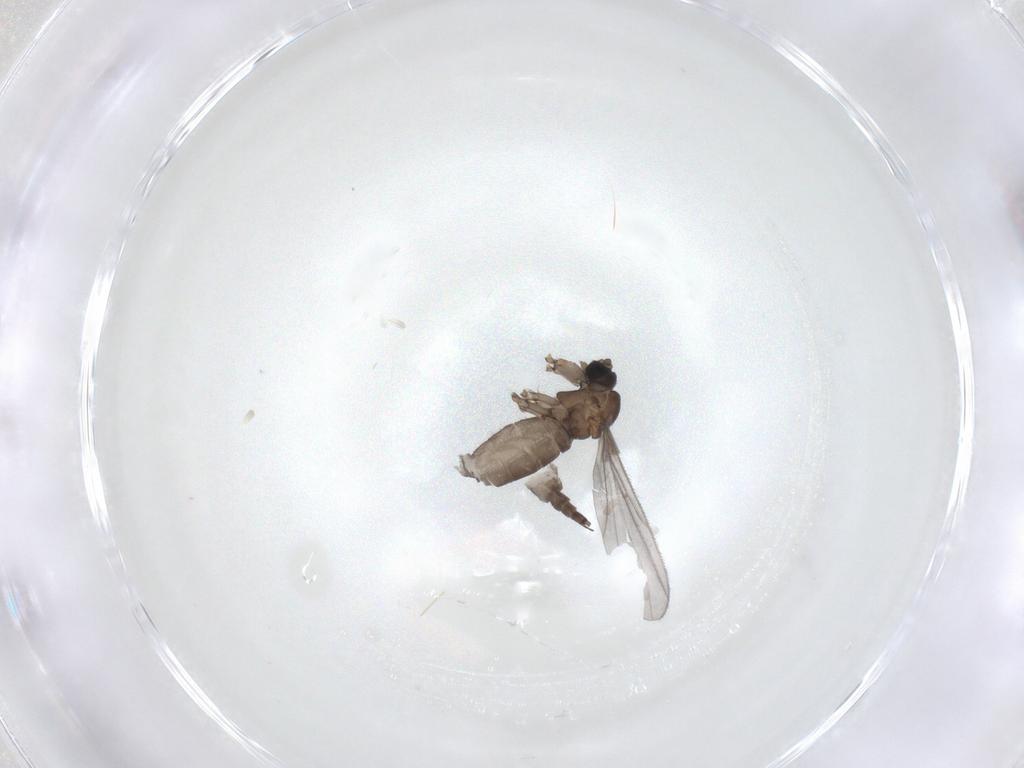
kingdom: Animalia
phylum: Arthropoda
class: Insecta
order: Diptera
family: Sciaridae
